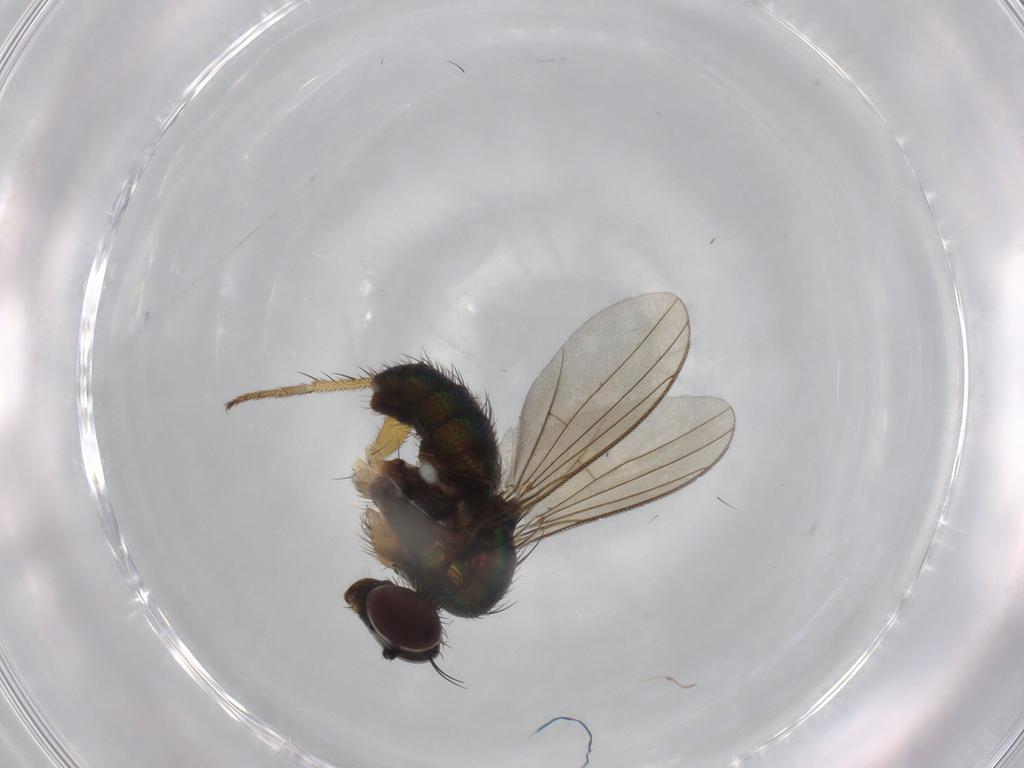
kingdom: Animalia
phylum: Arthropoda
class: Insecta
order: Diptera
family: Dolichopodidae
